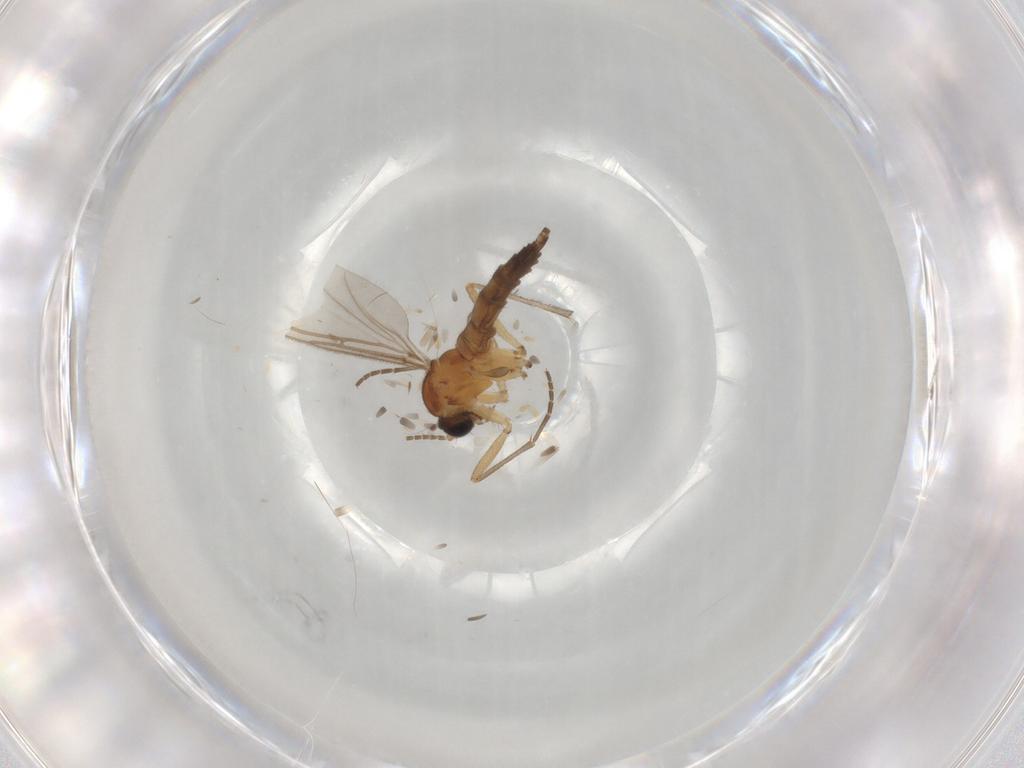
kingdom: Animalia
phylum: Arthropoda
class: Insecta
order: Diptera
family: Sciaridae
